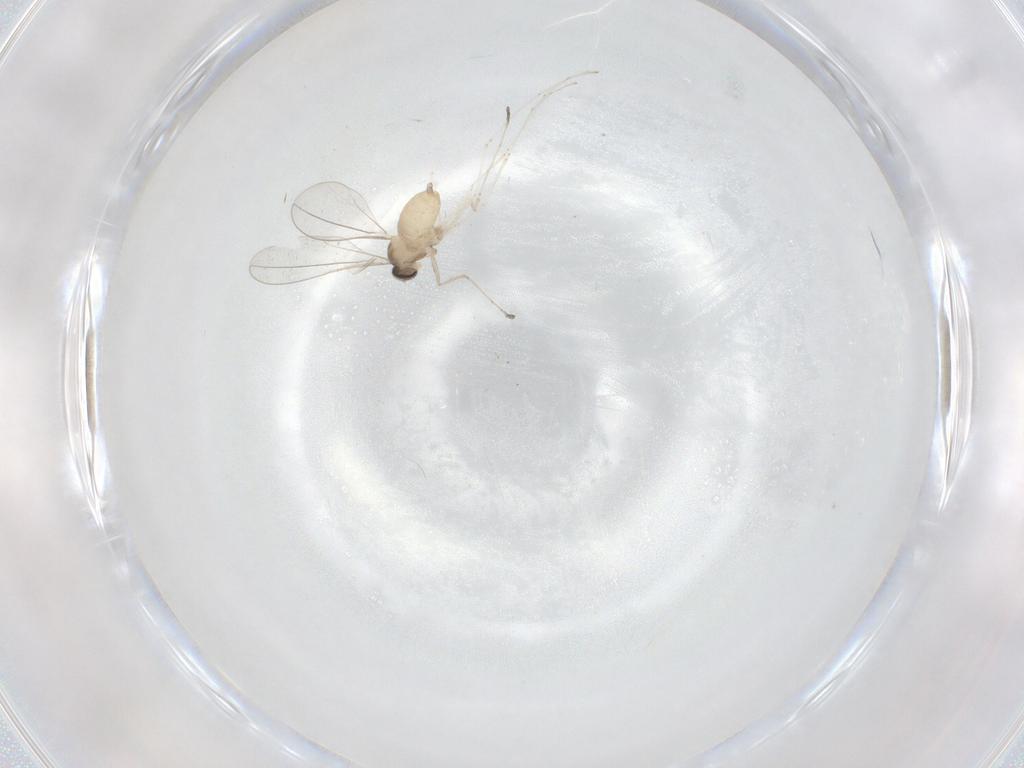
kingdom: Animalia
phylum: Arthropoda
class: Insecta
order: Diptera
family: Cecidomyiidae
